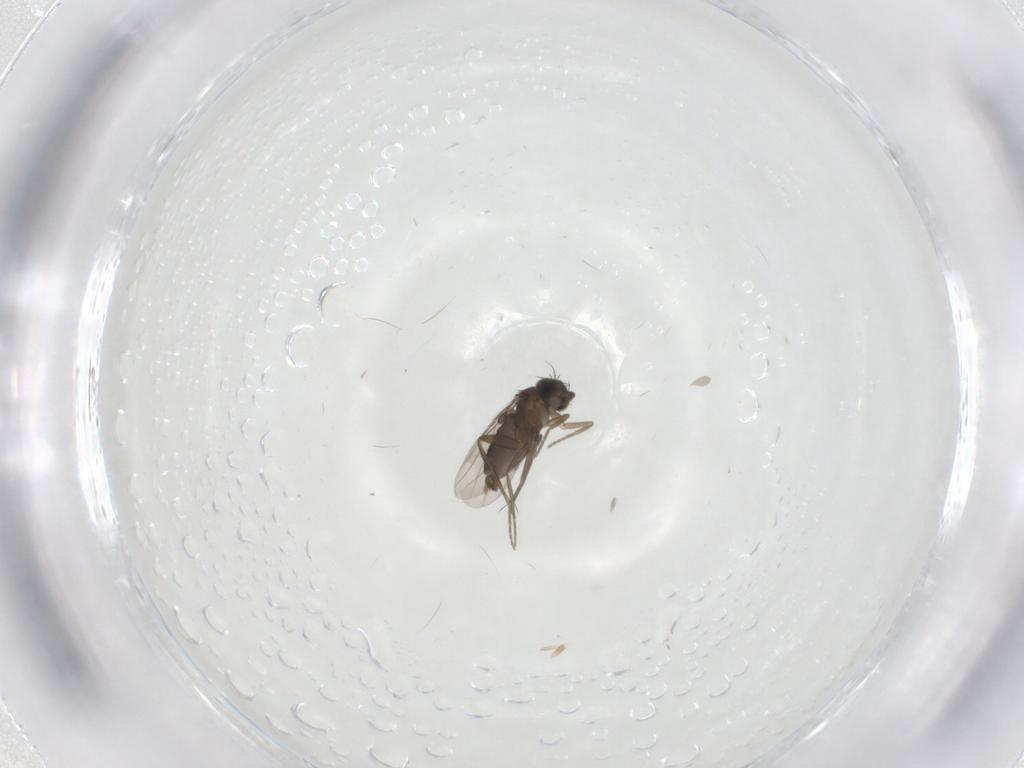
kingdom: Animalia
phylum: Arthropoda
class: Insecta
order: Diptera
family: Phoridae
